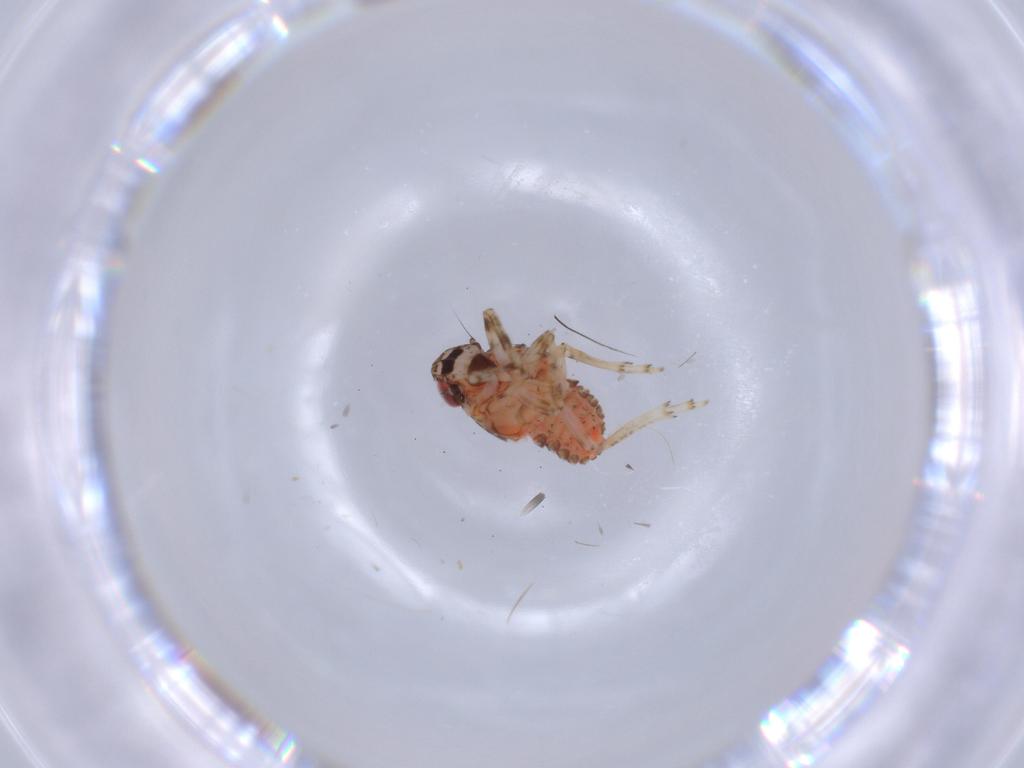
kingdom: Animalia
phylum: Arthropoda
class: Insecta
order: Hemiptera
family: Issidae
